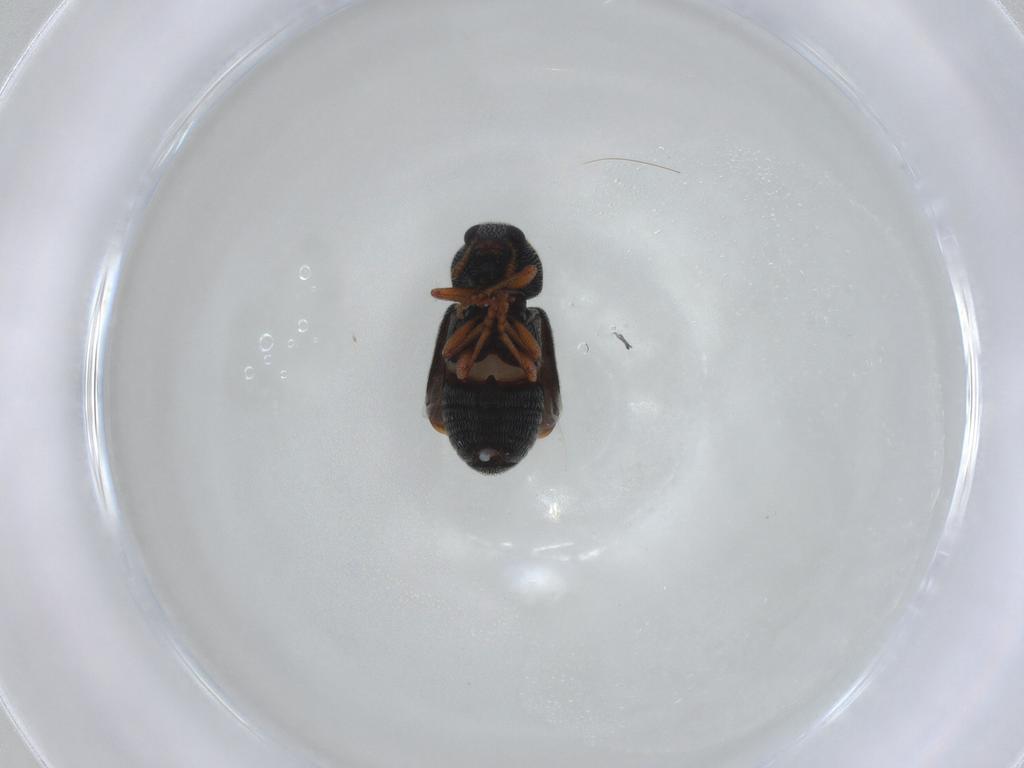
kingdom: Animalia
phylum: Arthropoda
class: Insecta
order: Coleoptera
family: Anthribidae
